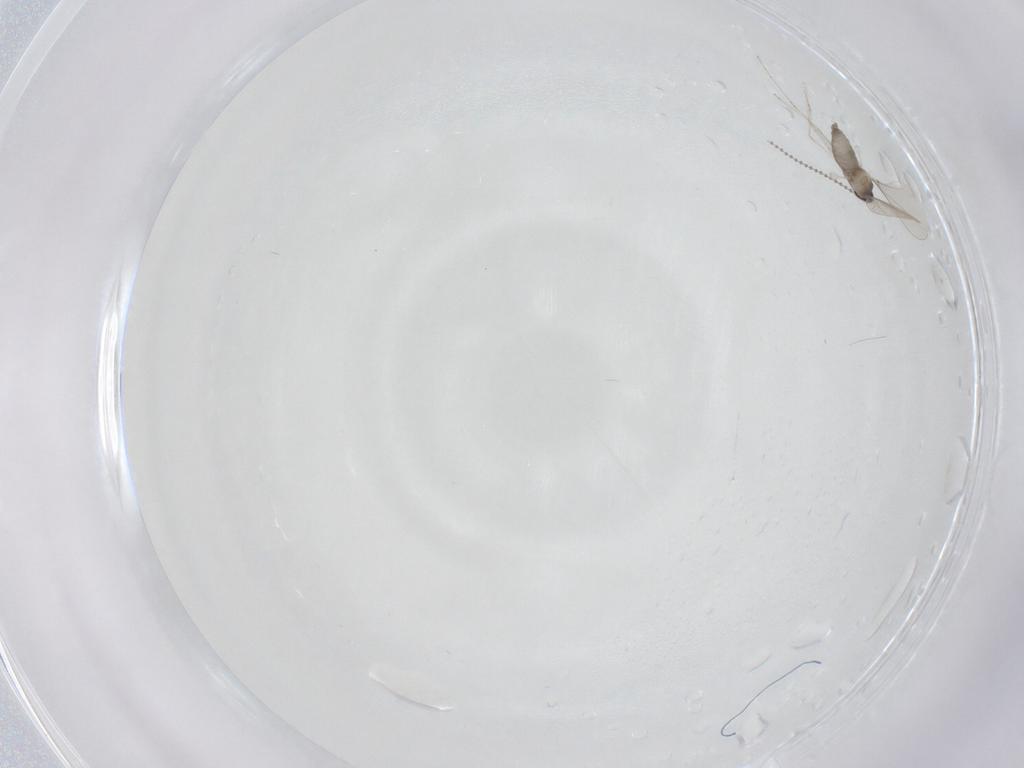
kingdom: Animalia
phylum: Arthropoda
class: Insecta
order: Diptera
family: Cecidomyiidae
